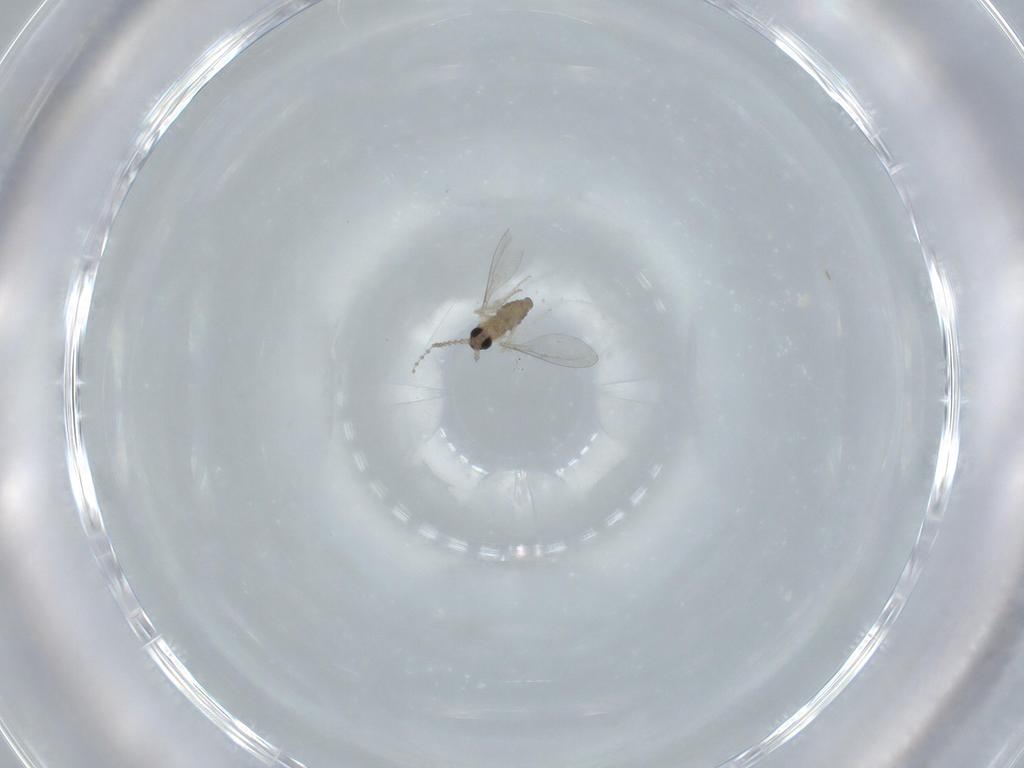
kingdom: Animalia
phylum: Arthropoda
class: Insecta
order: Diptera
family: Cecidomyiidae
